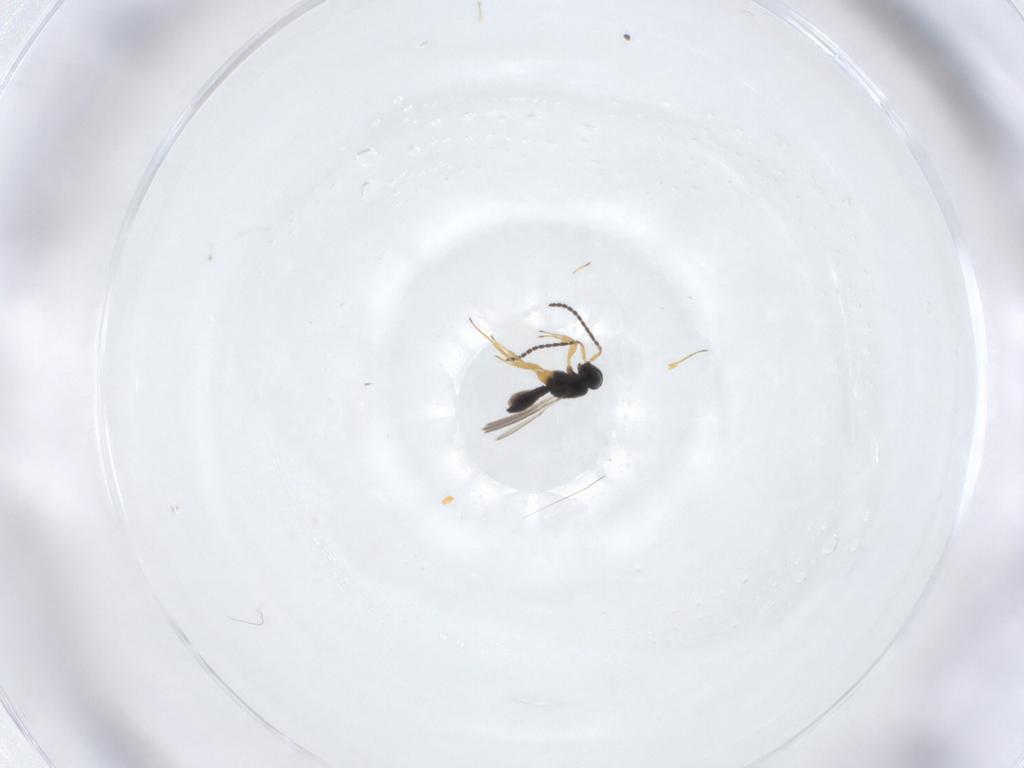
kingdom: Animalia
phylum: Arthropoda
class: Insecta
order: Hymenoptera
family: Scelionidae
